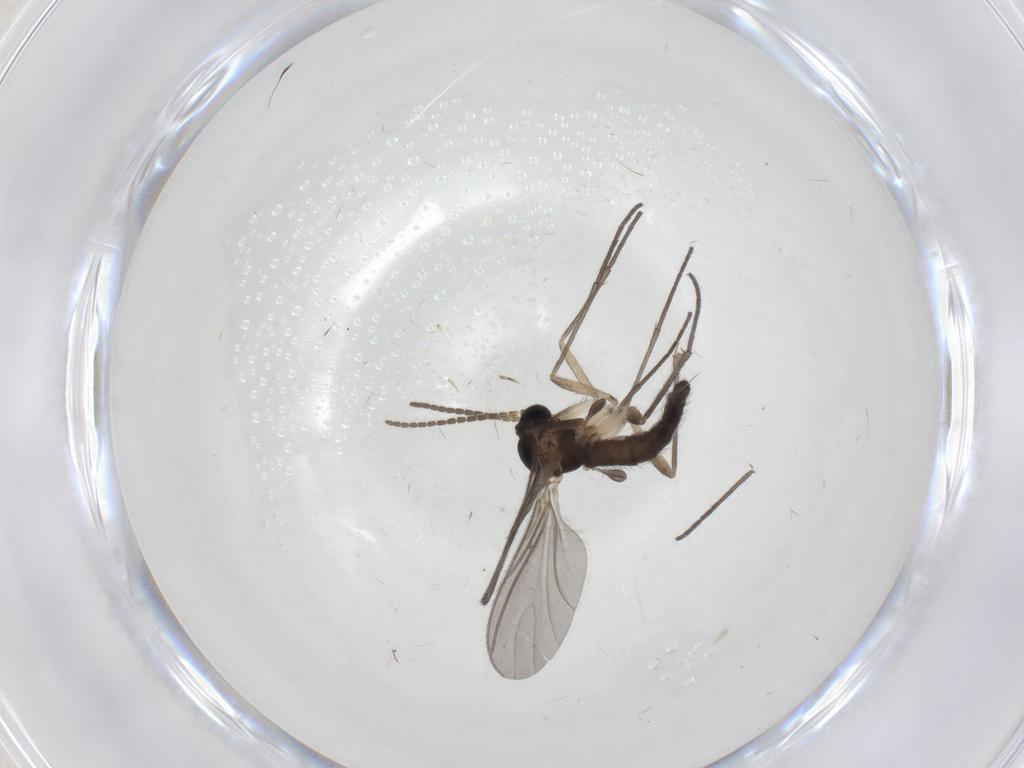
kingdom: Animalia
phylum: Arthropoda
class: Insecta
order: Diptera
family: Sciaridae
